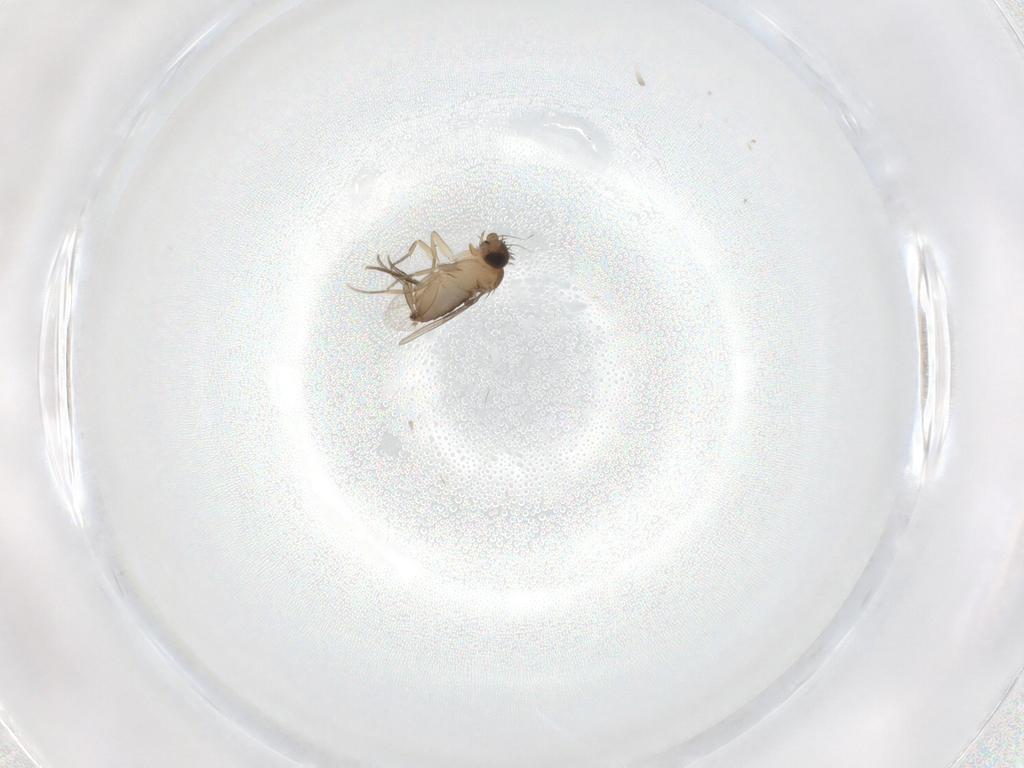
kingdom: Animalia
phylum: Arthropoda
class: Insecta
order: Diptera
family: Phoridae
